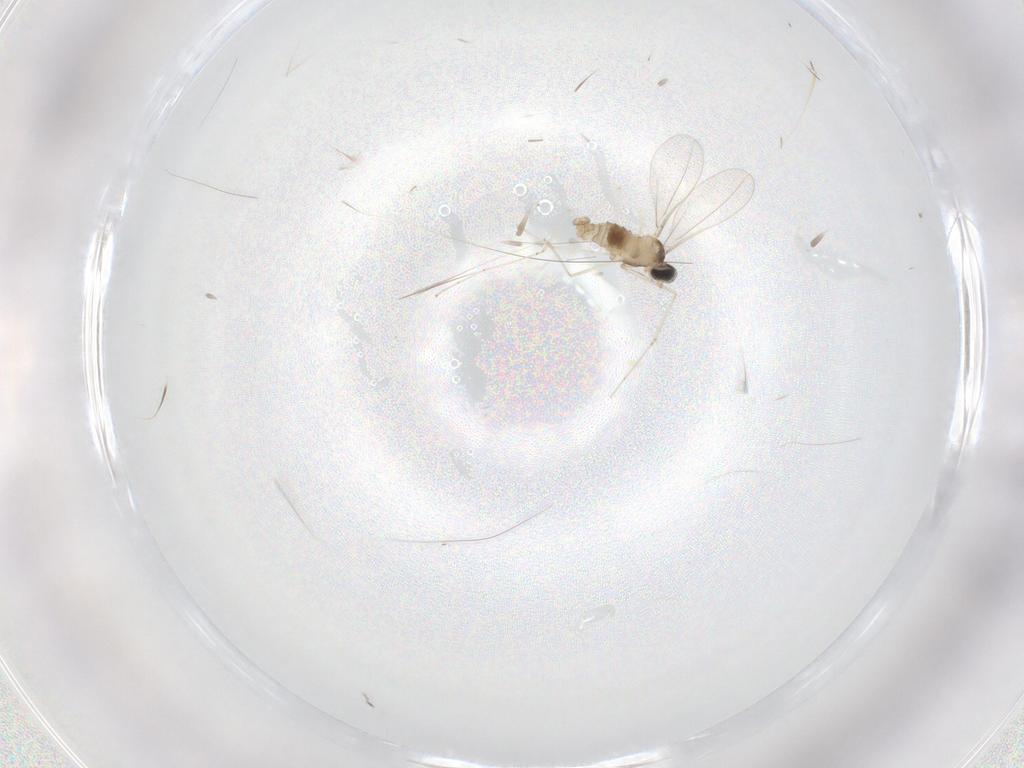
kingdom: Animalia
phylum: Arthropoda
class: Insecta
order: Diptera
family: Cecidomyiidae
